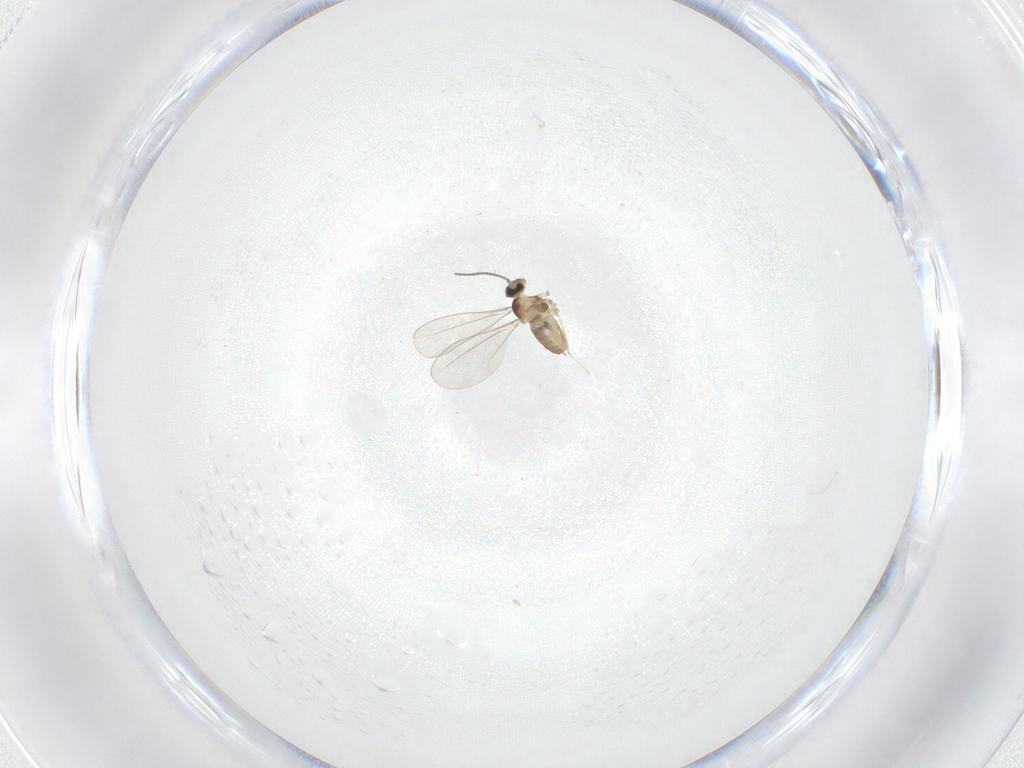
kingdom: Animalia
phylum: Arthropoda
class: Insecta
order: Diptera
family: Cecidomyiidae
